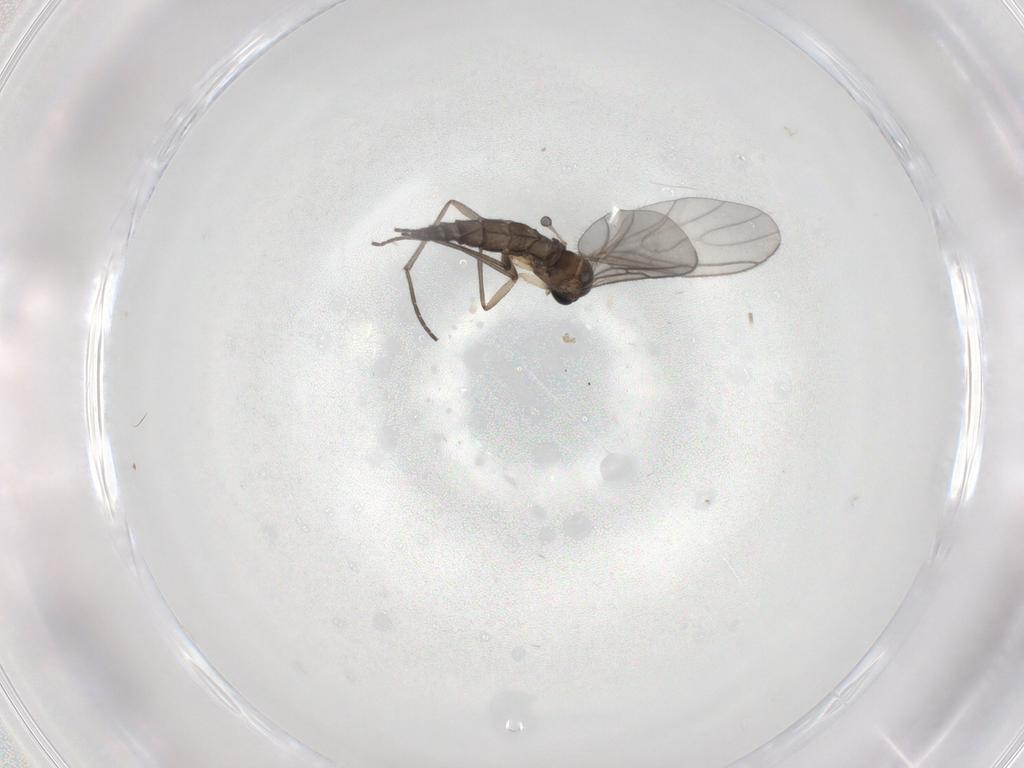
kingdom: Animalia
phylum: Arthropoda
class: Insecta
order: Diptera
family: Sciaridae
